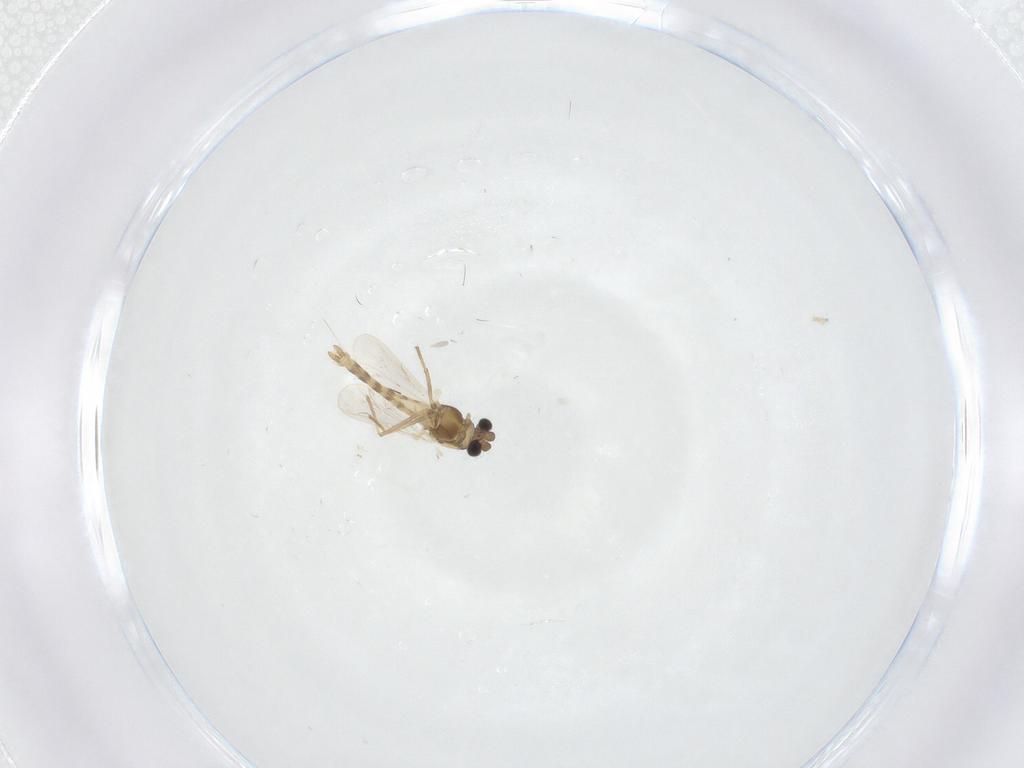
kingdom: Animalia
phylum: Arthropoda
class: Insecta
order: Diptera
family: Chironomidae
